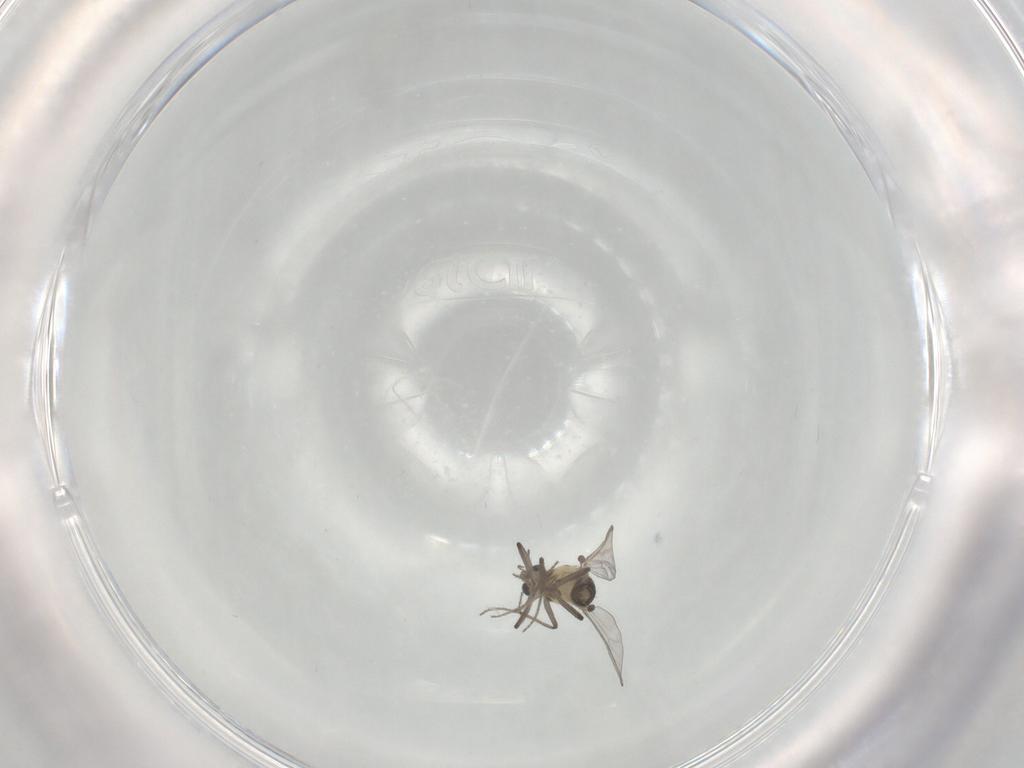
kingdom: Animalia
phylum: Arthropoda
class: Insecta
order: Diptera
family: Chironomidae
